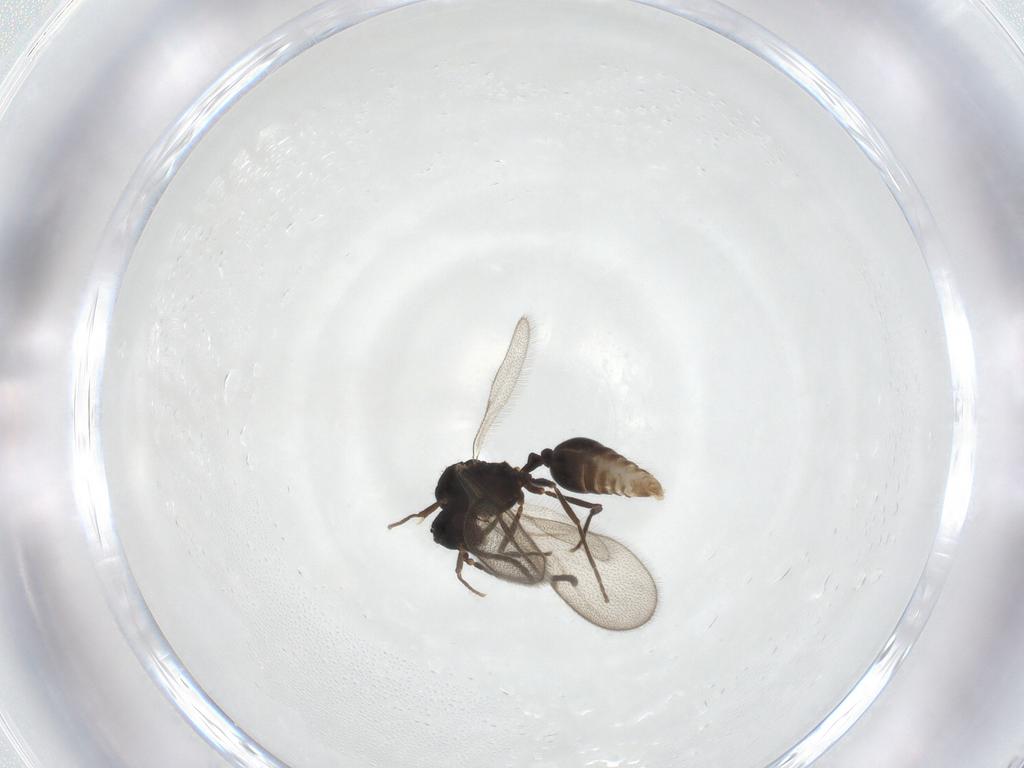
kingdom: Animalia
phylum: Arthropoda
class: Insecta
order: Hymenoptera
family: Formicidae
